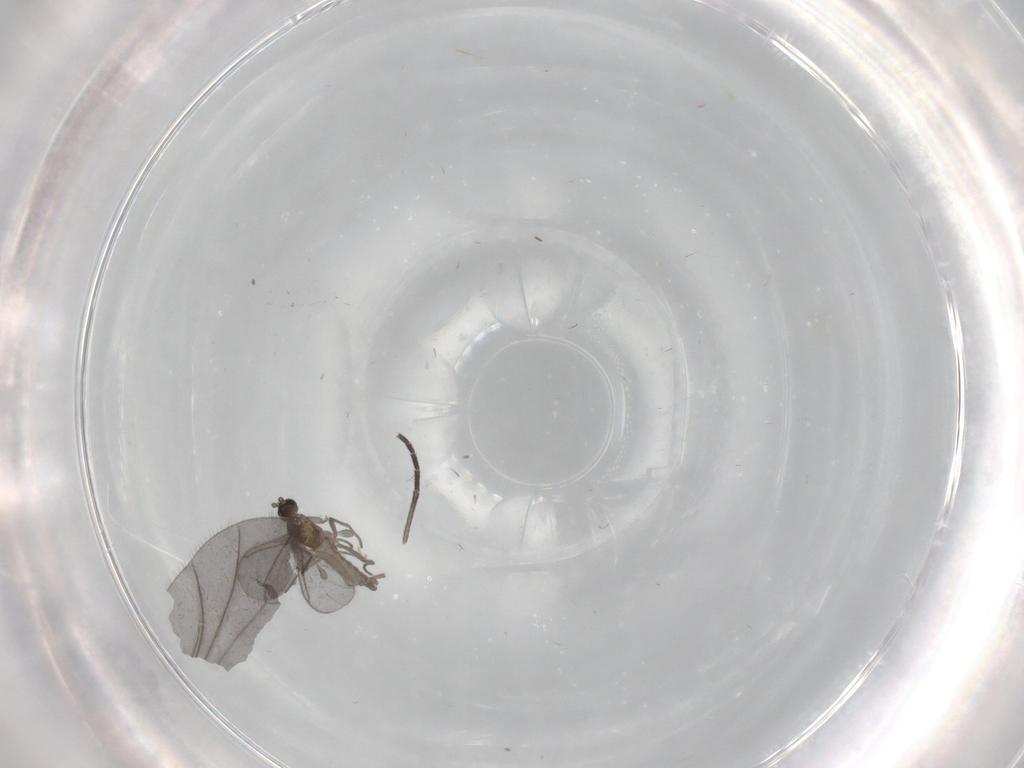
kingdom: Animalia
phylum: Arthropoda
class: Insecta
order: Diptera
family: Sciaridae
